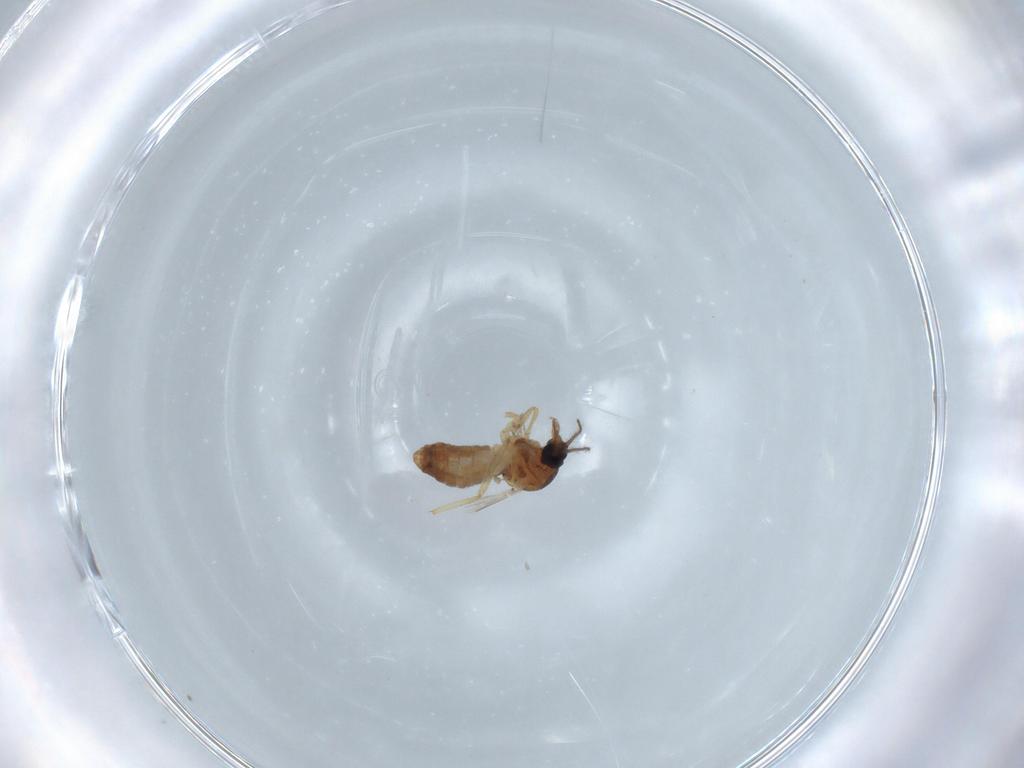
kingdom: Animalia
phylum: Arthropoda
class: Insecta
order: Diptera
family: Ceratopogonidae
